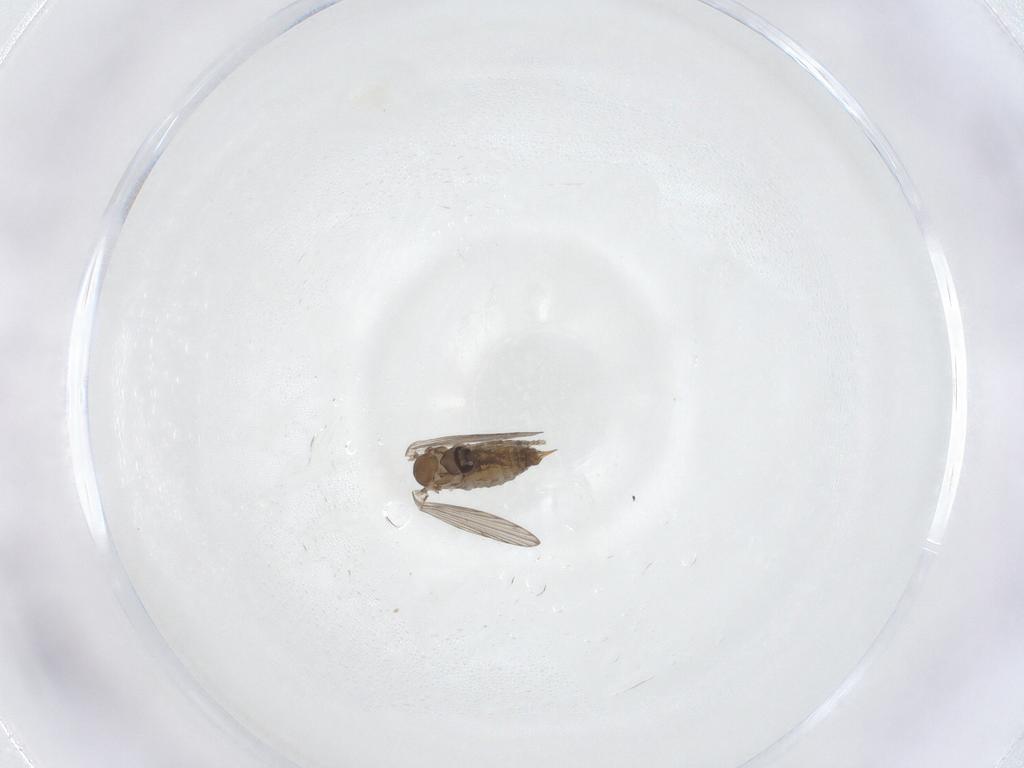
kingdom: Animalia
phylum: Arthropoda
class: Insecta
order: Diptera
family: Psychodidae
